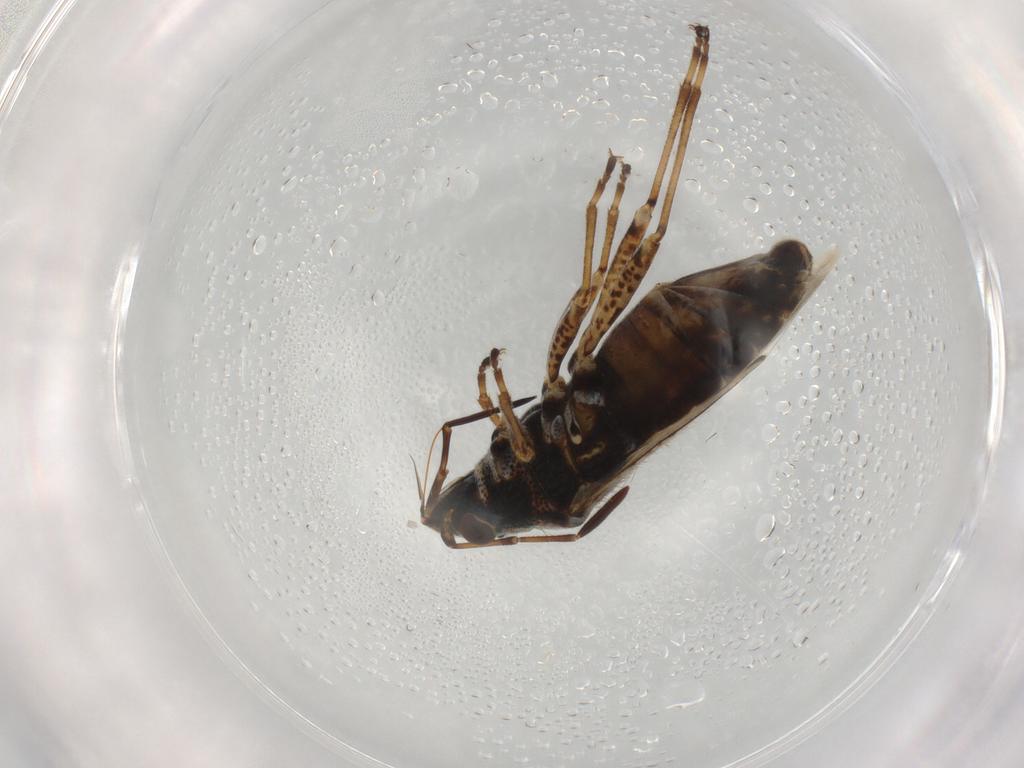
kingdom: Animalia
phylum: Arthropoda
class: Insecta
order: Hemiptera
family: Lygaeidae
